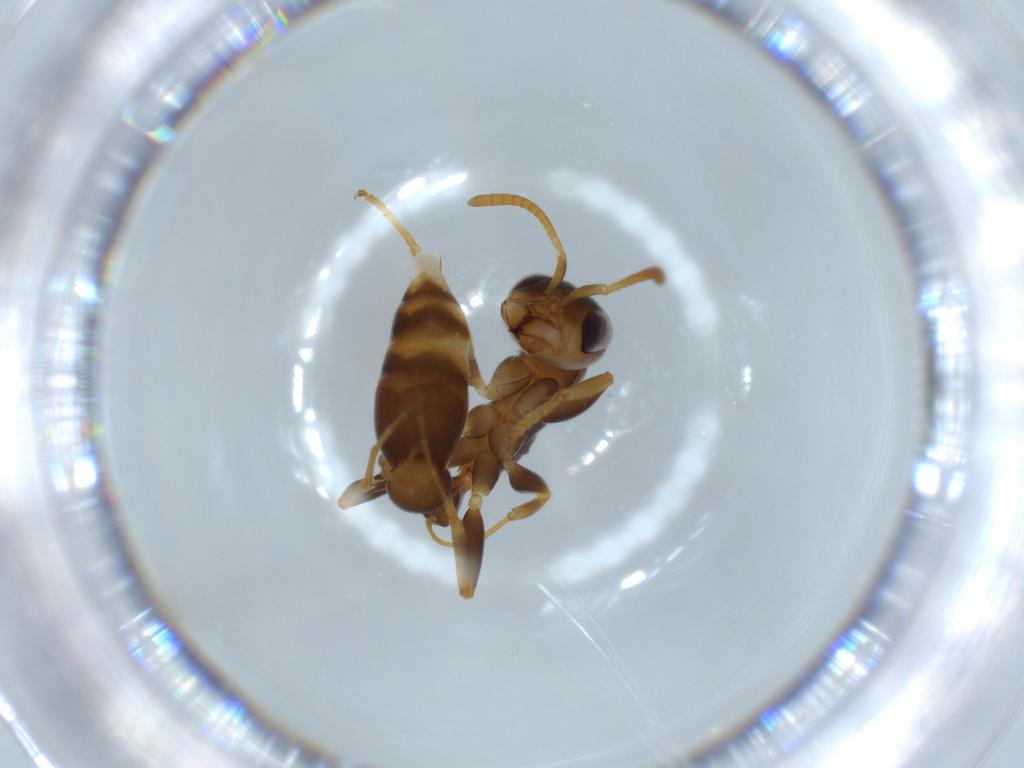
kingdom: Animalia
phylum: Arthropoda
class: Insecta
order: Hymenoptera
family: Formicidae
